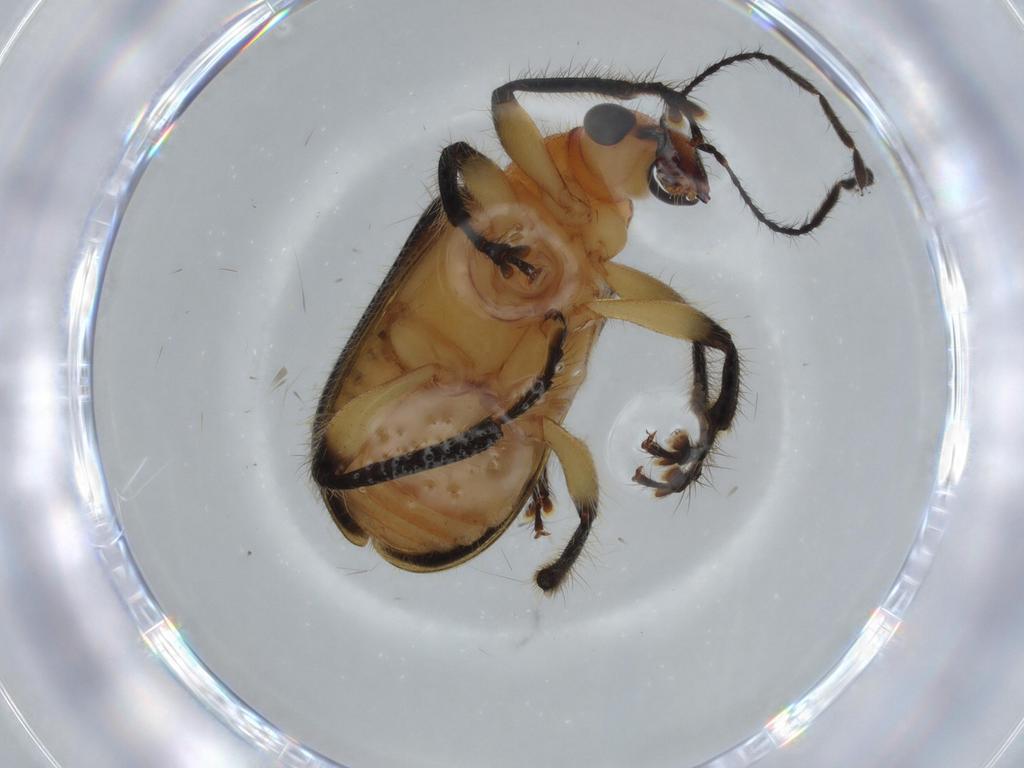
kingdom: Animalia
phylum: Arthropoda
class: Insecta
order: Coleoptera
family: Attelabidae
